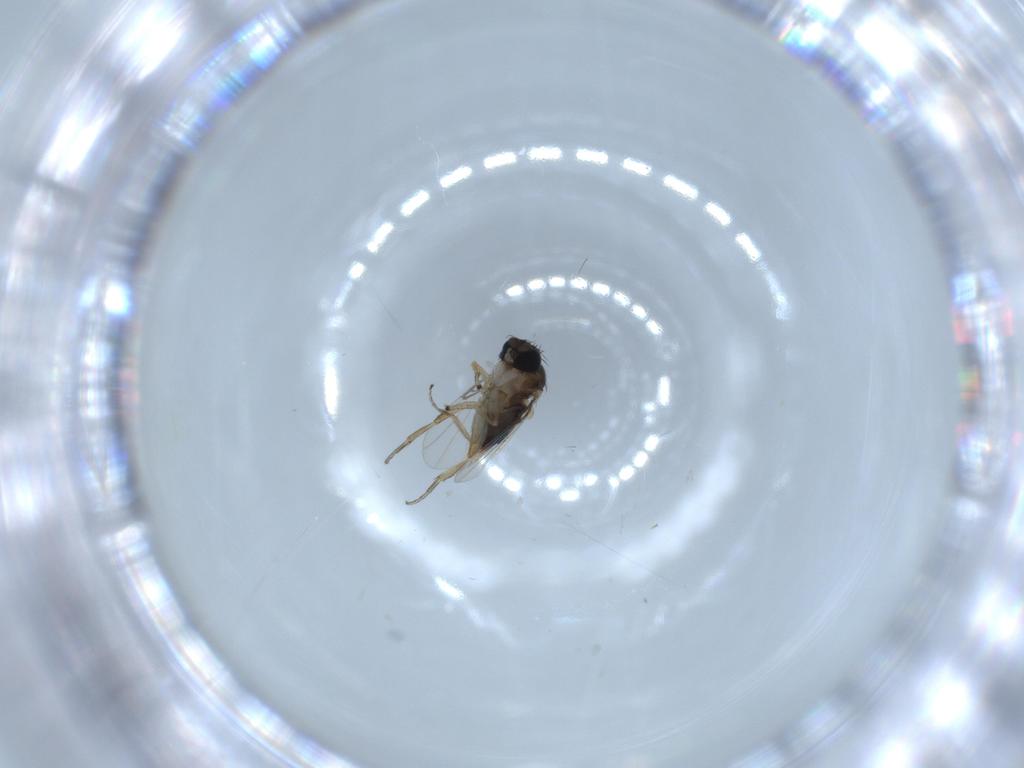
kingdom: Animalia
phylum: Arthropoda
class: Insecta
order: Diptera
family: Phoridae
